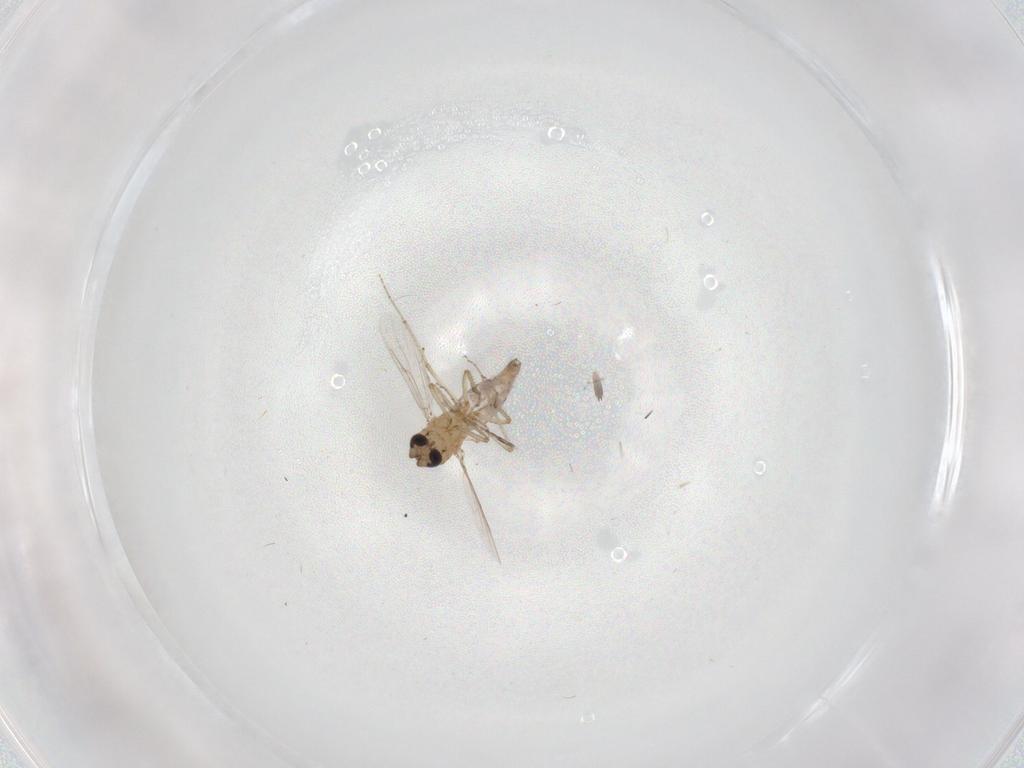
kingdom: Animalia
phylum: Arthropoda
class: Insecta
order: Diptera
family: Cecidomyiidae
